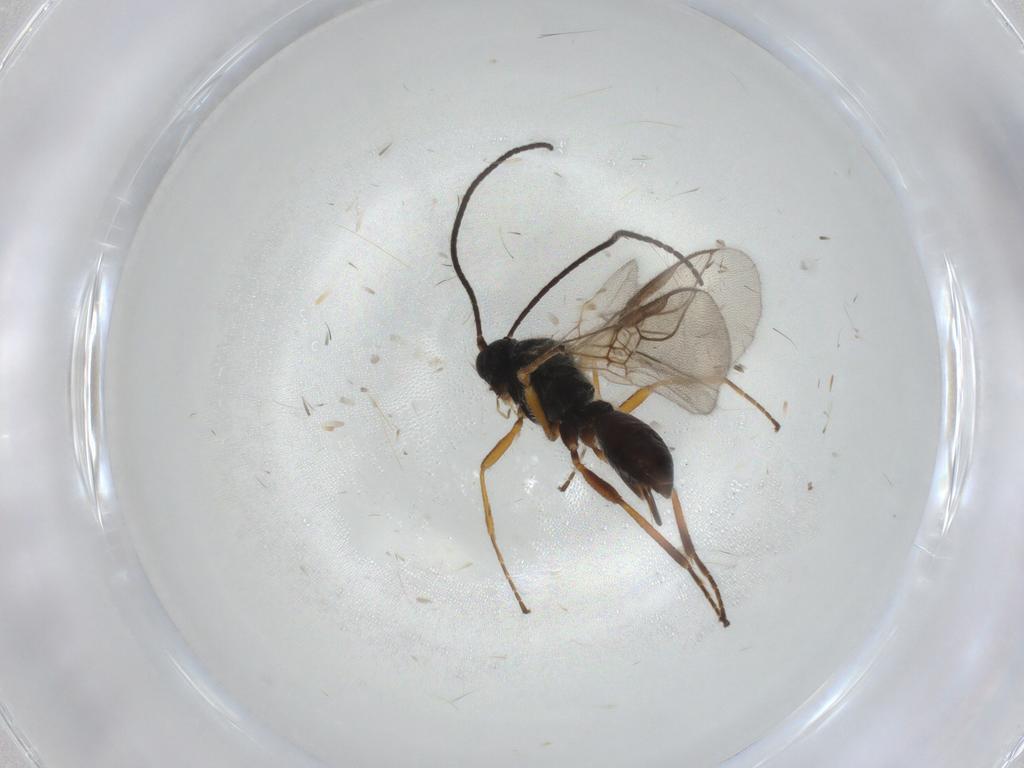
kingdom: Animalia
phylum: Arthropoda
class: Insecta
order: Hymenoptera
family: Braconidae
